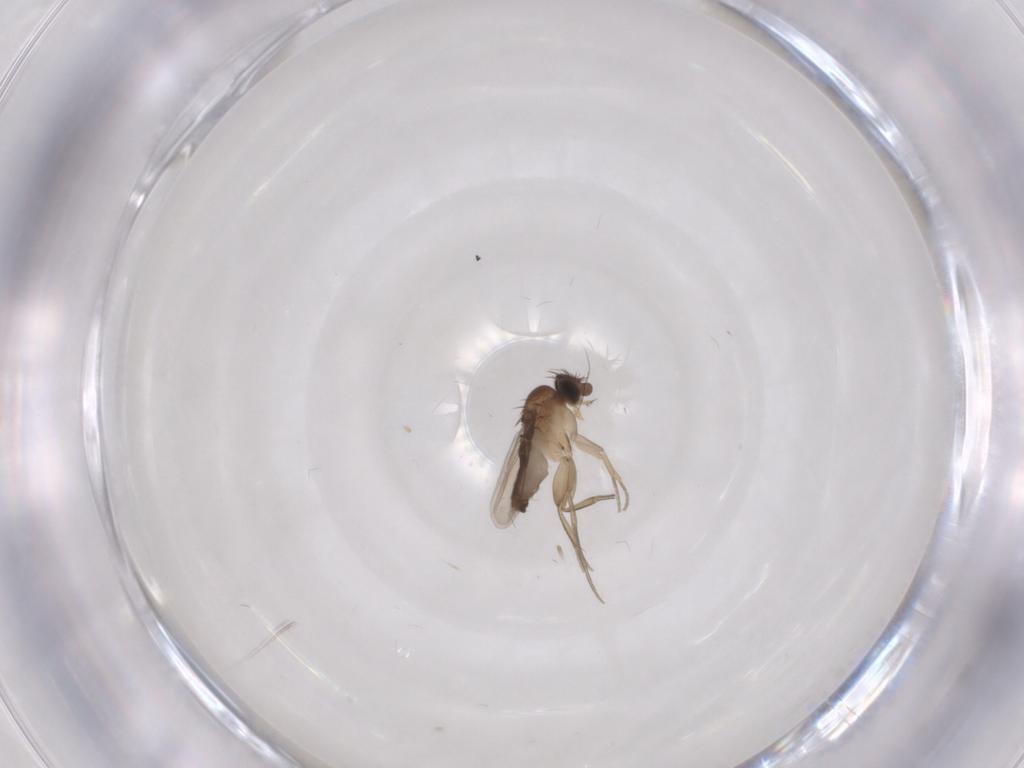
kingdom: Animalia
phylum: Arthropoda
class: Insecta
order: Diptera
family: Phoridae
